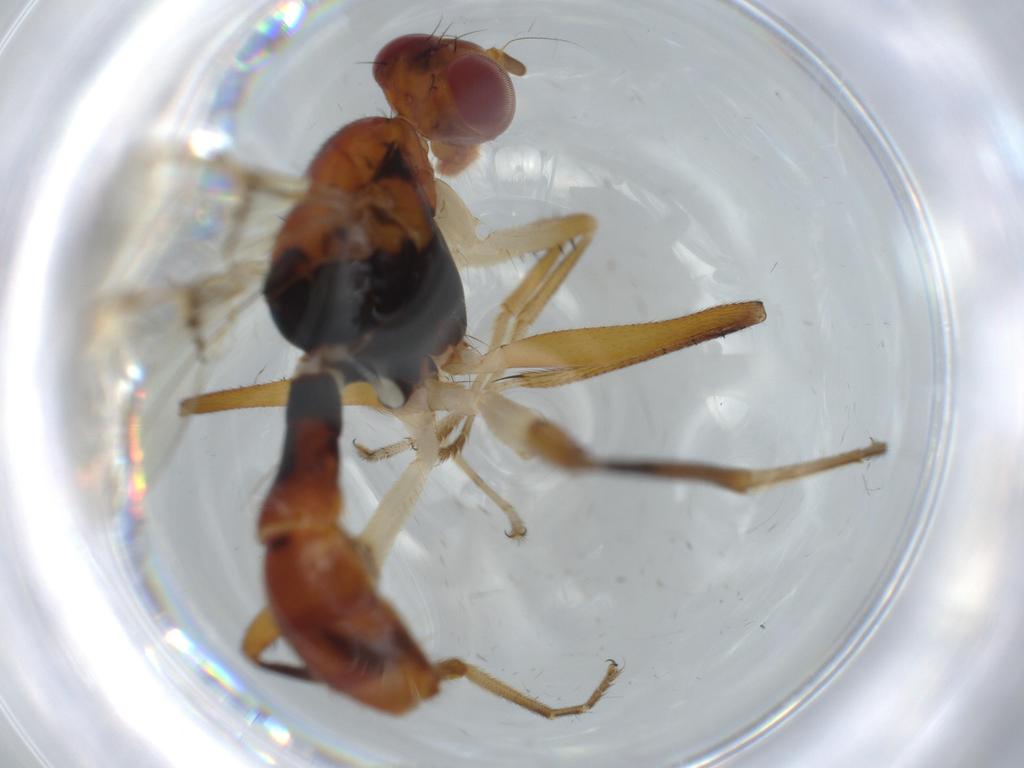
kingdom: Animalia
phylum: Arthropoda
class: Insecta
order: Diptera
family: Richardiidae
